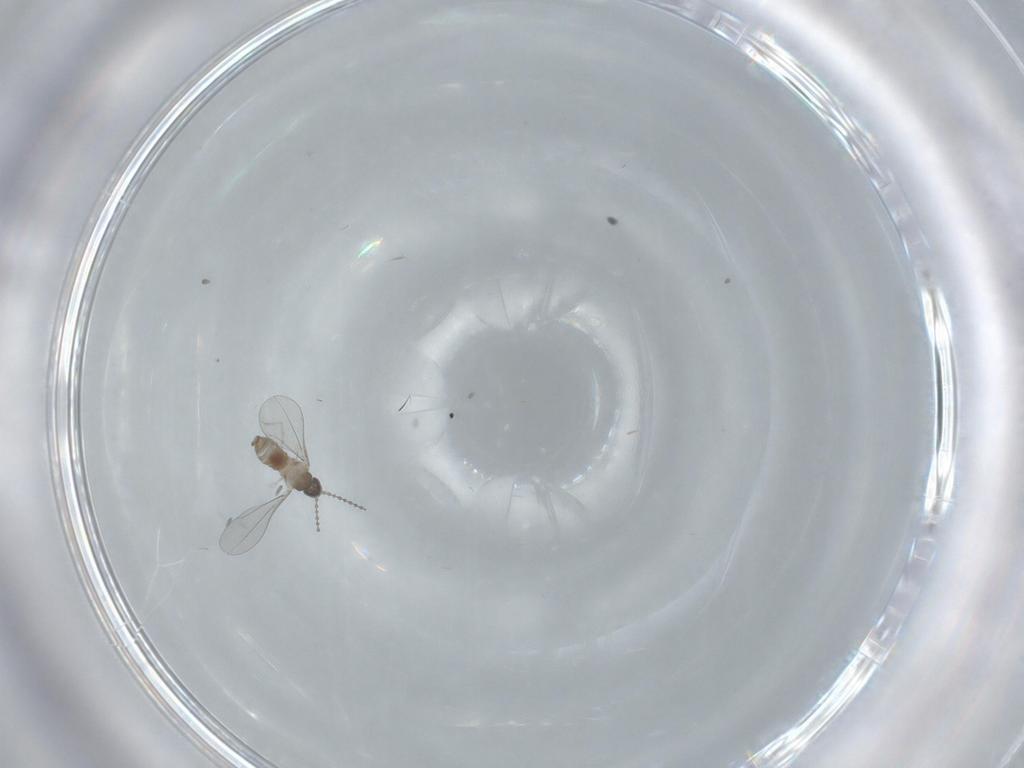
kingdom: Animalia
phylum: Arthropoda
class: Insecta
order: Diptera
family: Cecidomyiidae
